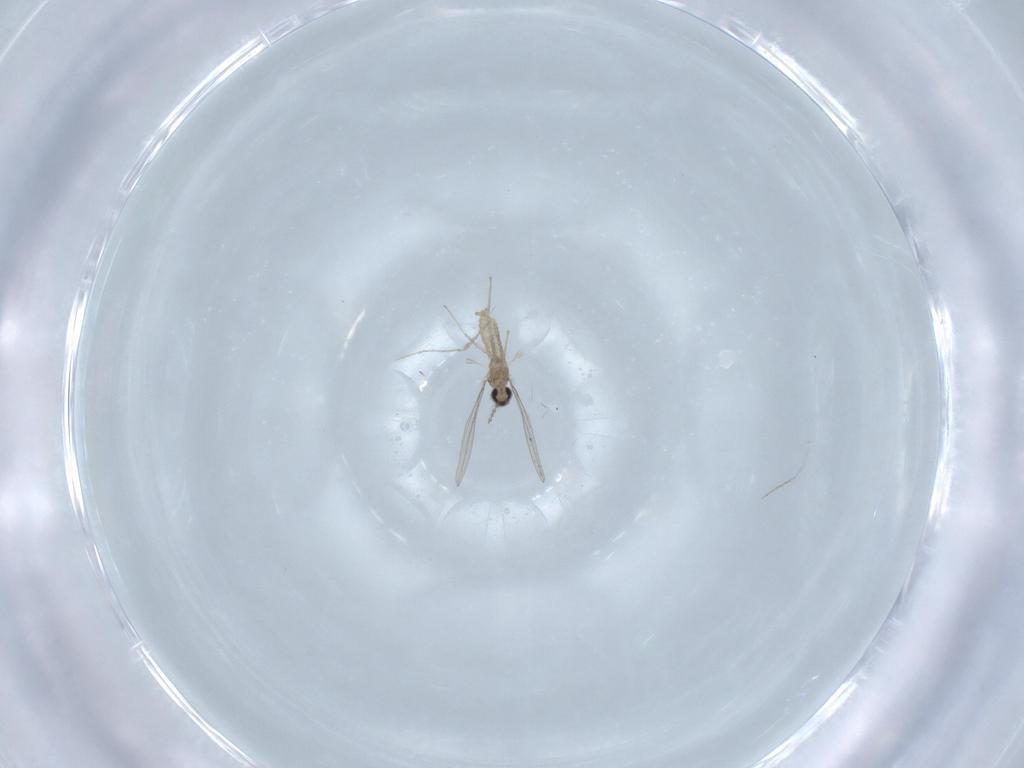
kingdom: Animalia
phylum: Arthropoda
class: Insecta
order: Diptera
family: Cecidomyiidae
